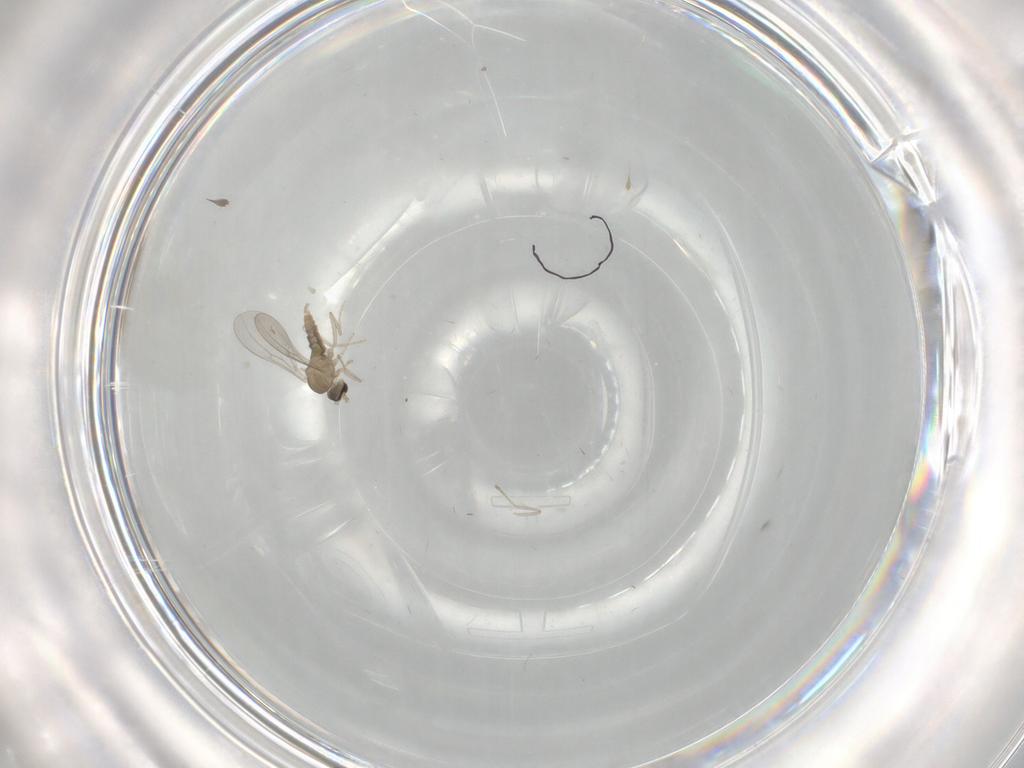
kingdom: Animalia
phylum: Arthropoda
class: Insecta
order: Diptera
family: Cecidomyiidae
